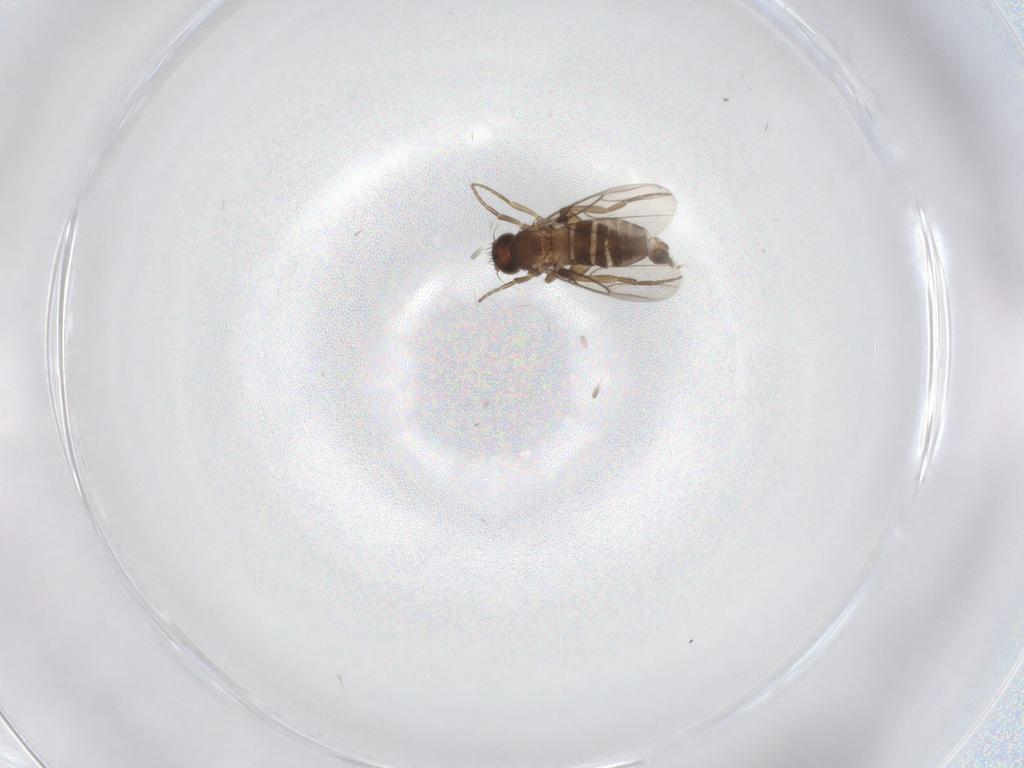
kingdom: Animalia
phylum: Arthropoda
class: Insecta
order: Diptera
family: Phoridae
